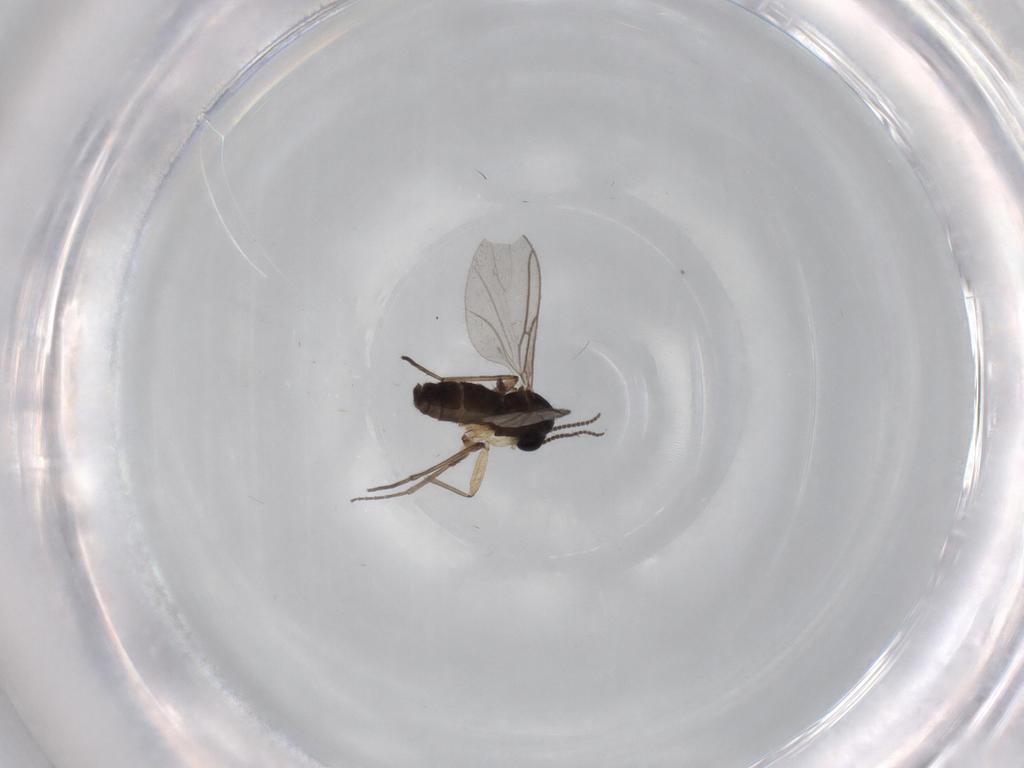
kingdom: Animalia
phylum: Arthropoda
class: Insecta
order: Diptera
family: Sciaridae
